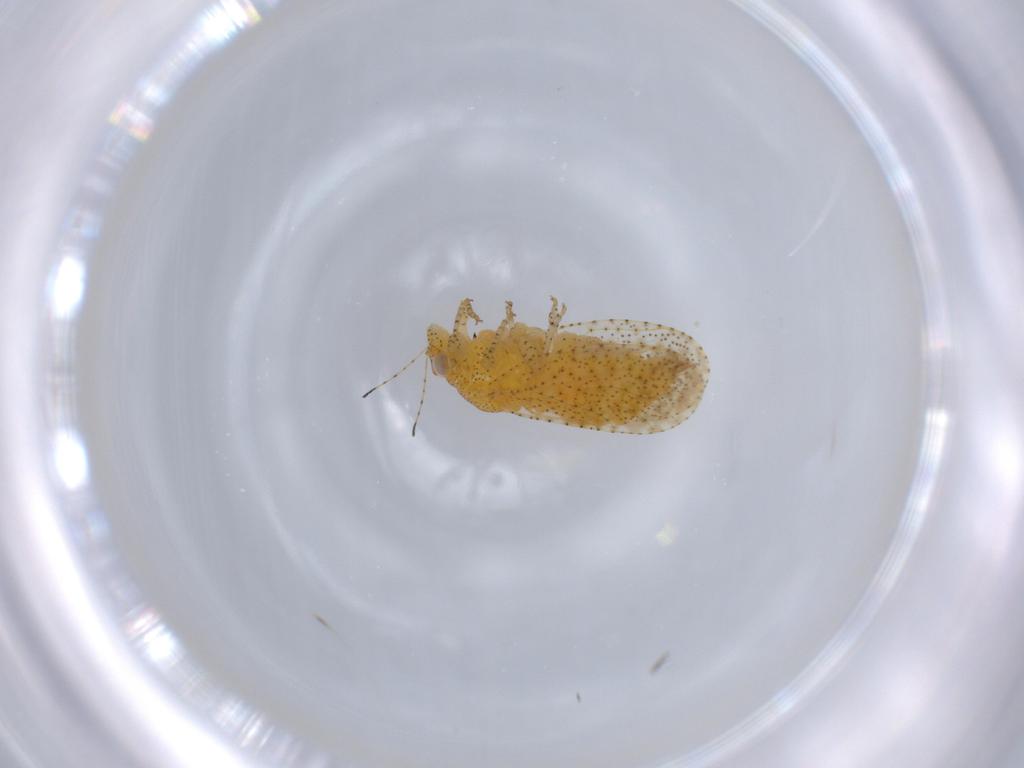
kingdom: Animalia
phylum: Arthropoda
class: Insecta
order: Hemiptera
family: Psyllidae
